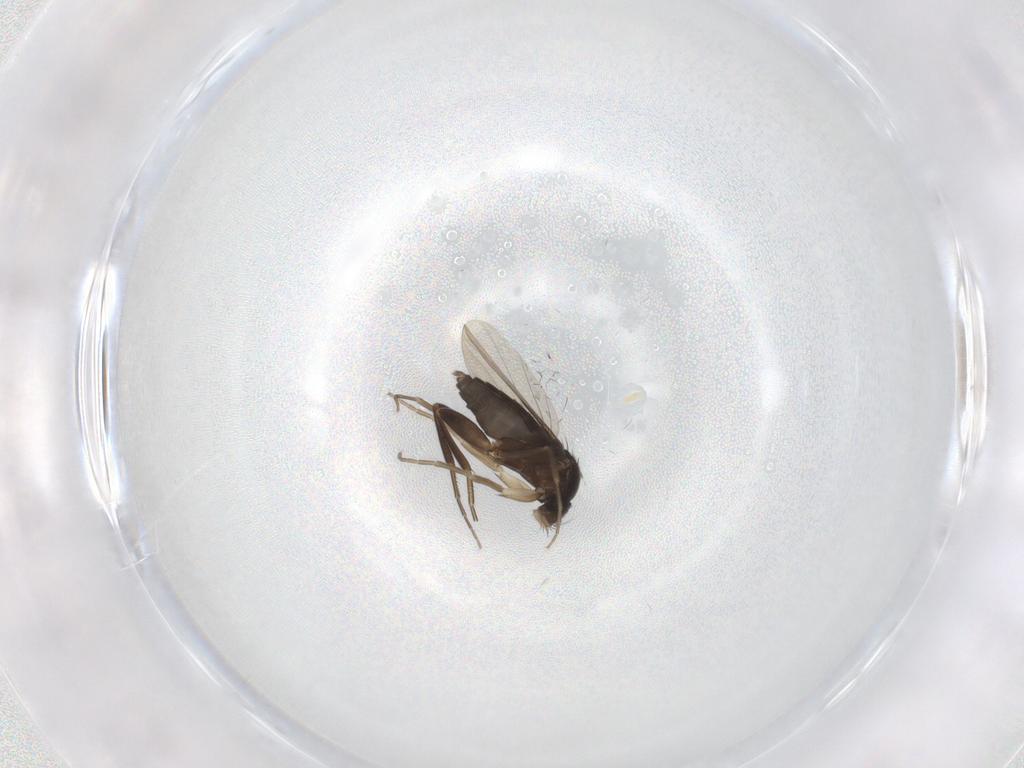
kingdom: Animalia
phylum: Arthropoda
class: Insecta
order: Diptera
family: Phoridae
